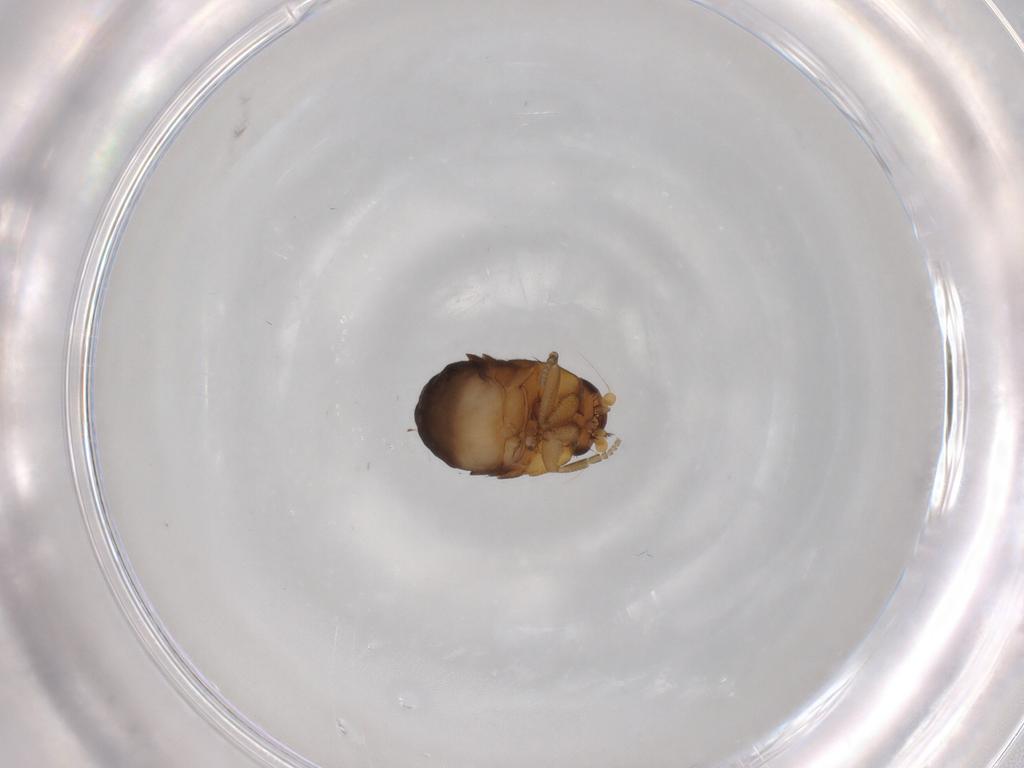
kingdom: Animalia
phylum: Arthropoda
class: Insecta
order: Diptera
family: Phoridae
